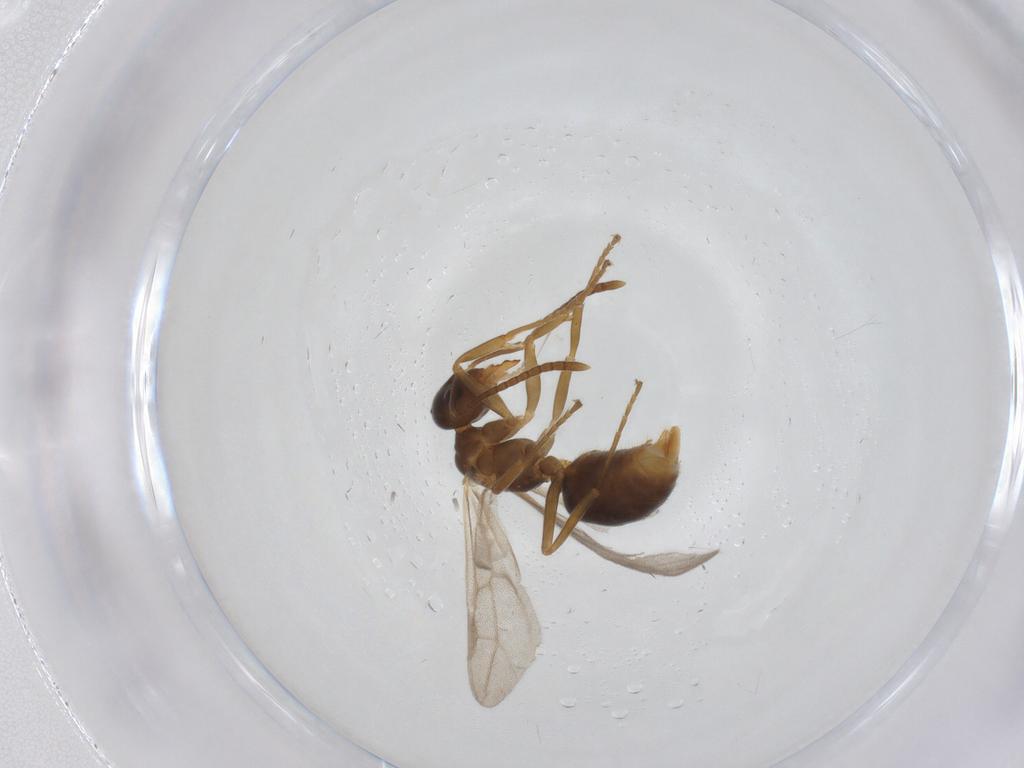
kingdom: Animalia
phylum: Arthropoda
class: Insecta
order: Hymenoptera
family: Formicidae
